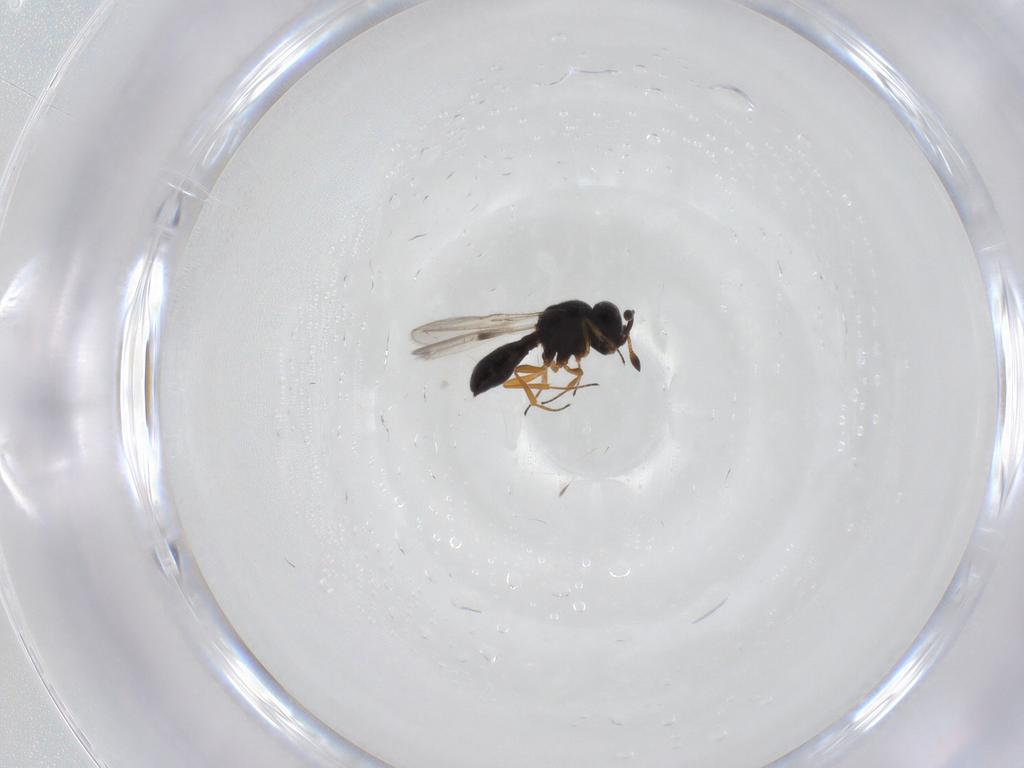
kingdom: Animalia
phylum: Arthropoda
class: Insecta
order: Hymenoptera
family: Scelionidae
